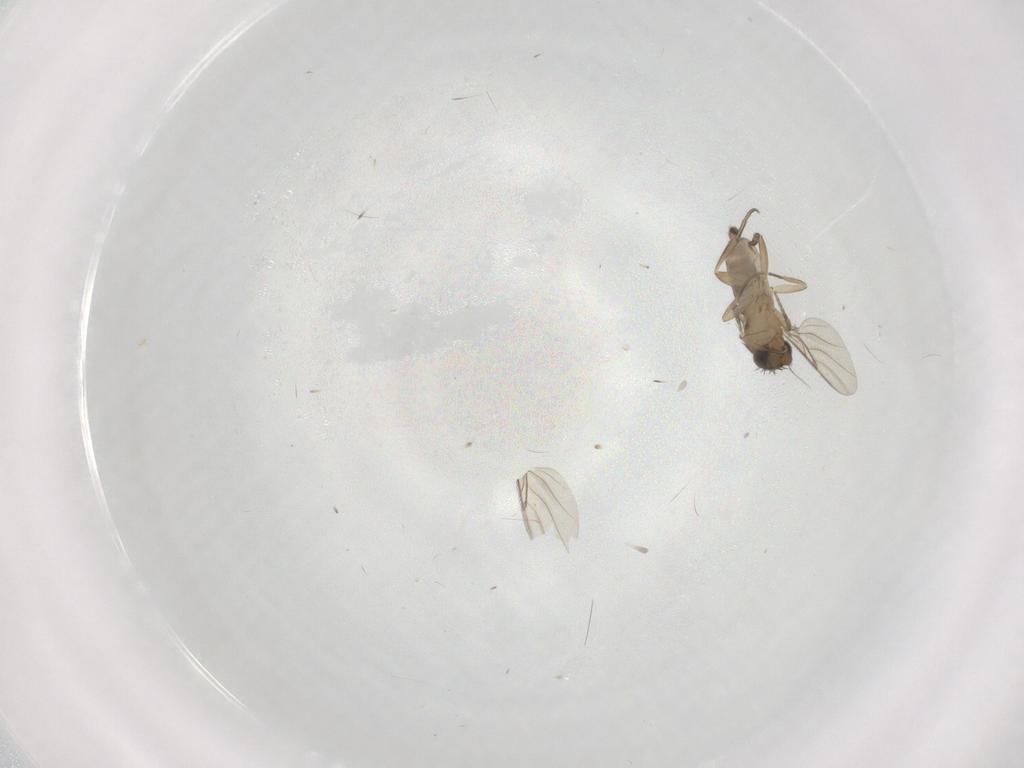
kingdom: Animalia
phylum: Arthropoda
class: Insecta
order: Diptera
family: Phoridae
